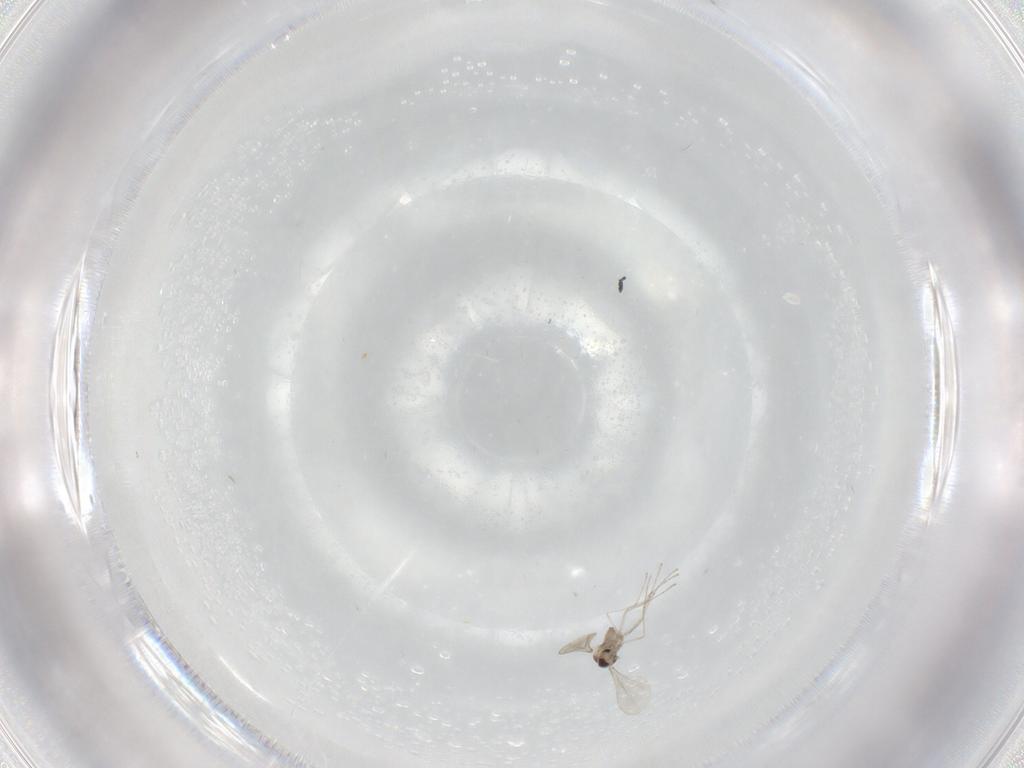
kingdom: Animalia
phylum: Arthropoda
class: Insecta
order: Diptera
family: Cecidomyiidae
